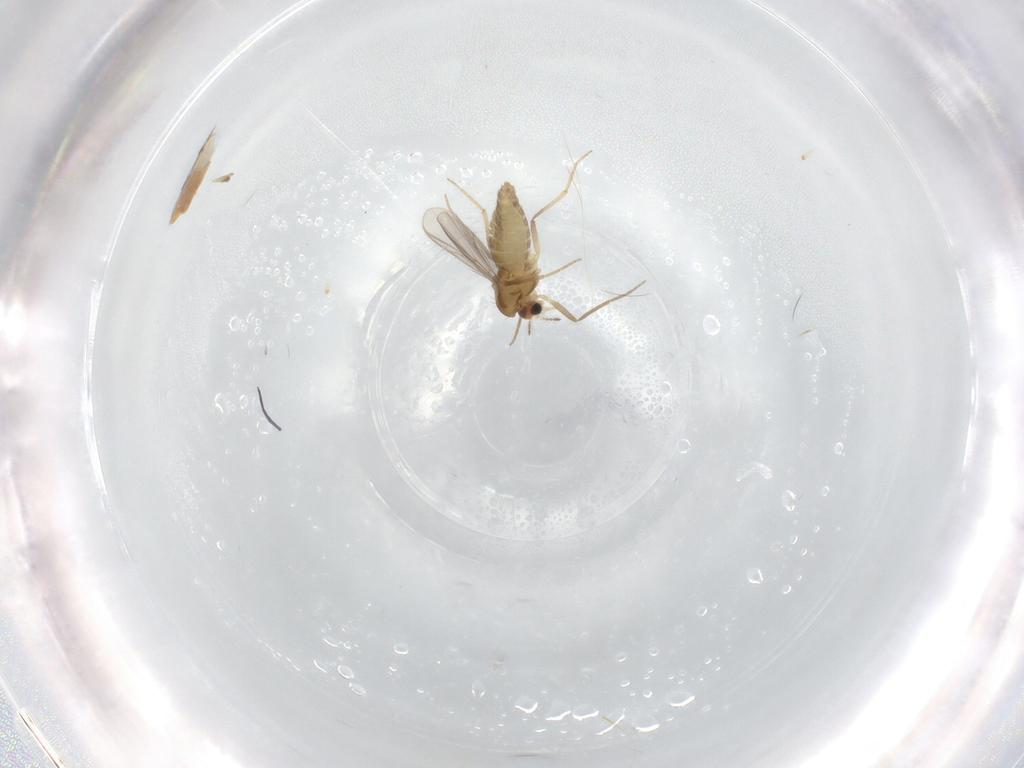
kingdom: Animalia
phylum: Arthropoda
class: Insecta
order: Diptera
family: Chironomidae
